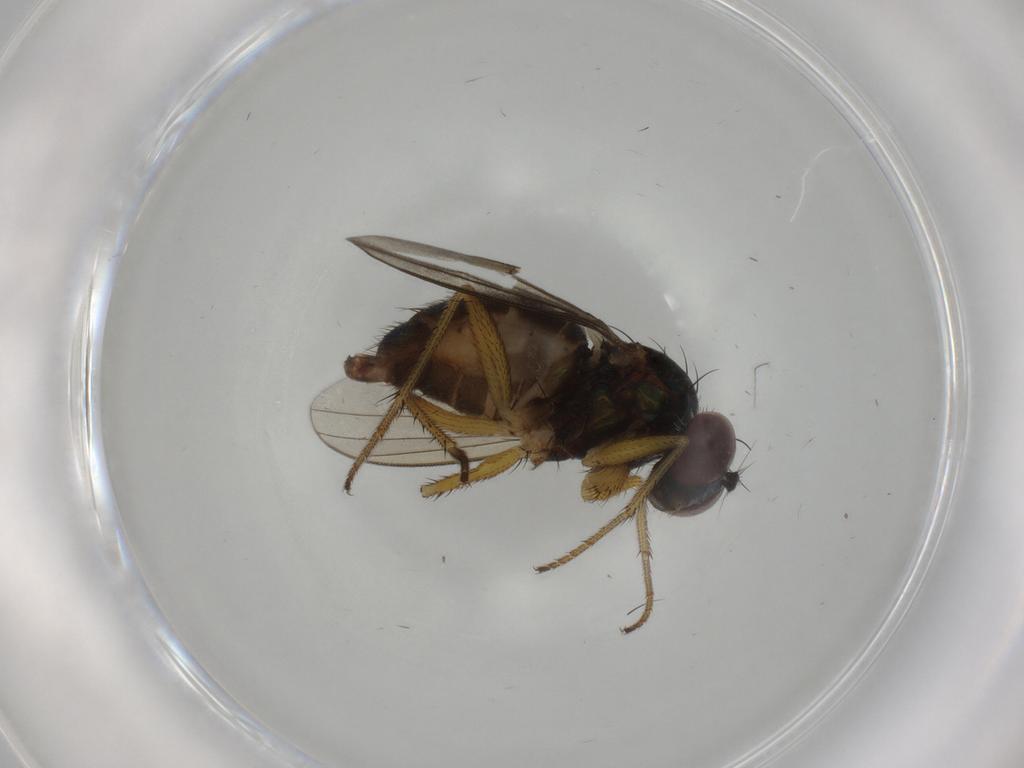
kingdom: Animalia
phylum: Arthropoda
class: Insecta
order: Diptera
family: Dolichopodidae
